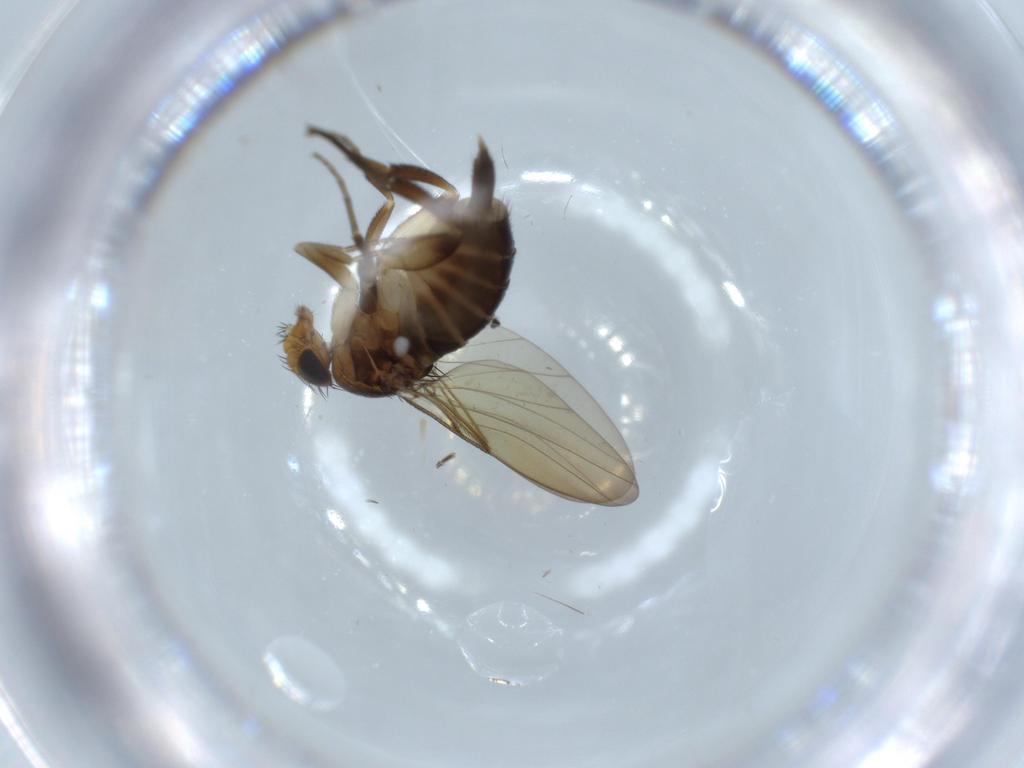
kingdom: Animalia
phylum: Arthropoda
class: Insecta
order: Diptera
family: Phoridae
